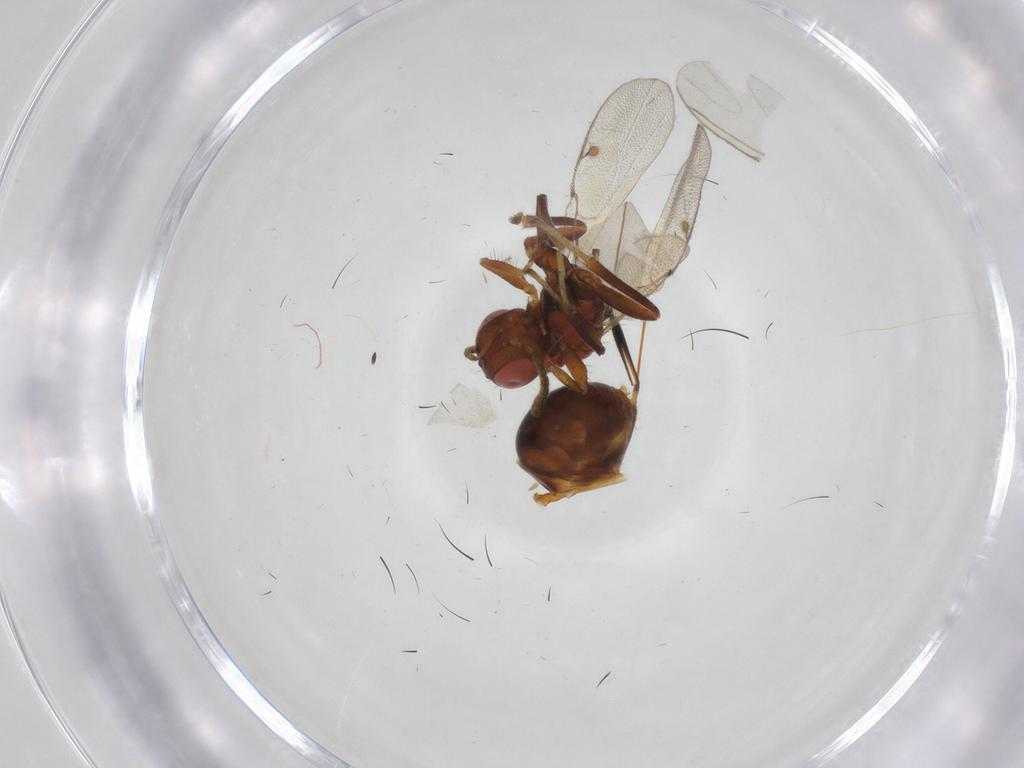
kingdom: Animalia
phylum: Arthropoda
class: Insecta
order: Hymenoptera
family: Megastigmidae
